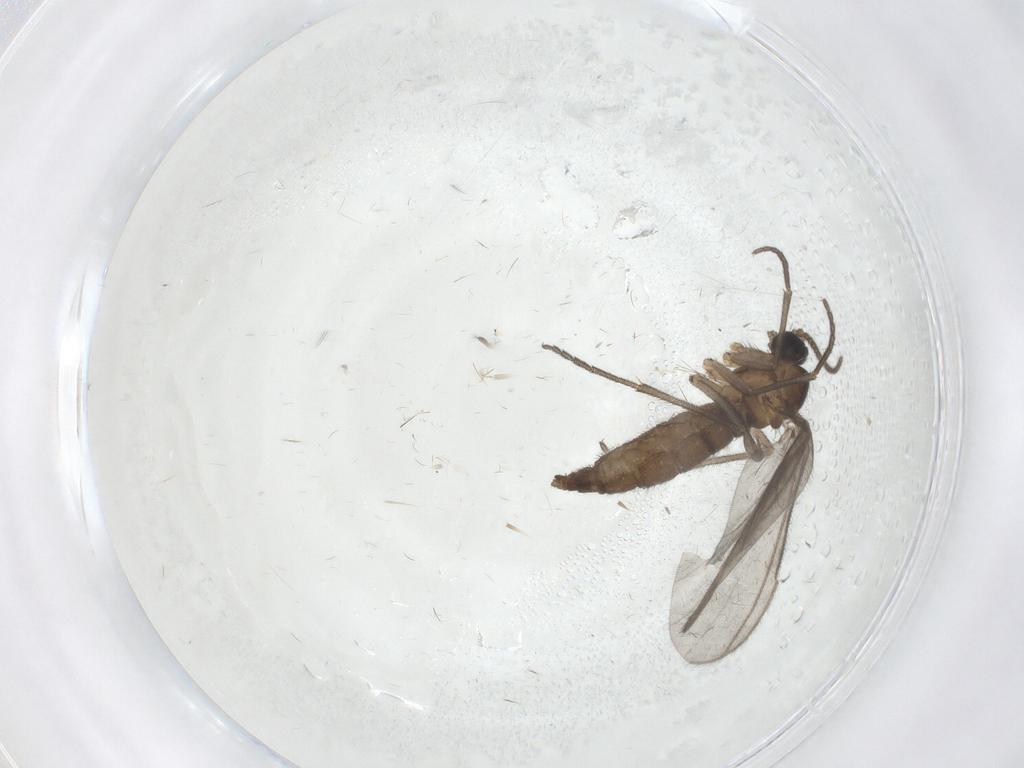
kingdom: Animalia
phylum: Arthropoda
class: Insecta
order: Diptera
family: Sciaridae
